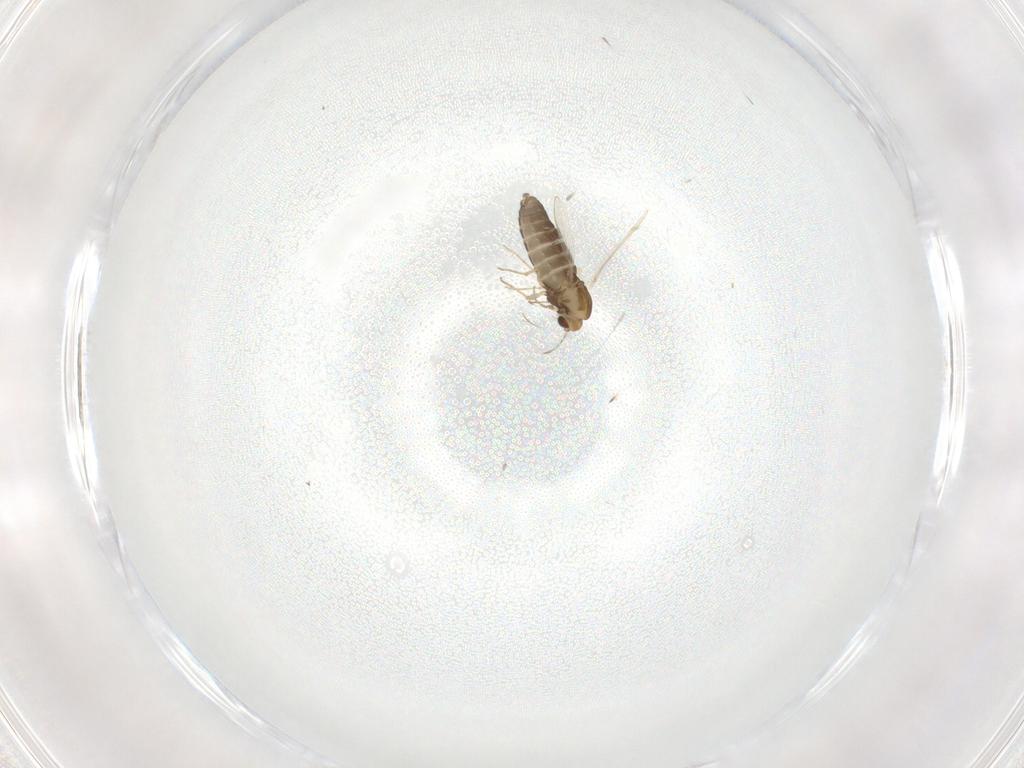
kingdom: Animalia
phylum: Arthropoda
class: Insecta
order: Diptera
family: Chironomidae
